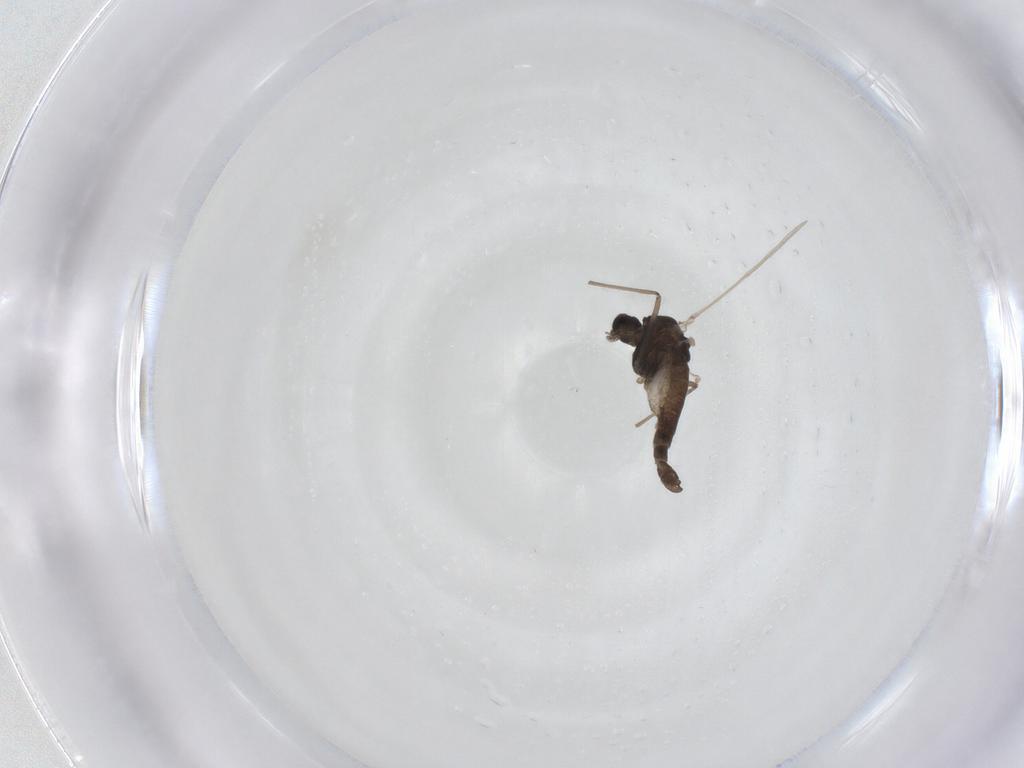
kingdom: Animalia
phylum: Arthropoda
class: Insecta
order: Diptera
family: Chironomidae
